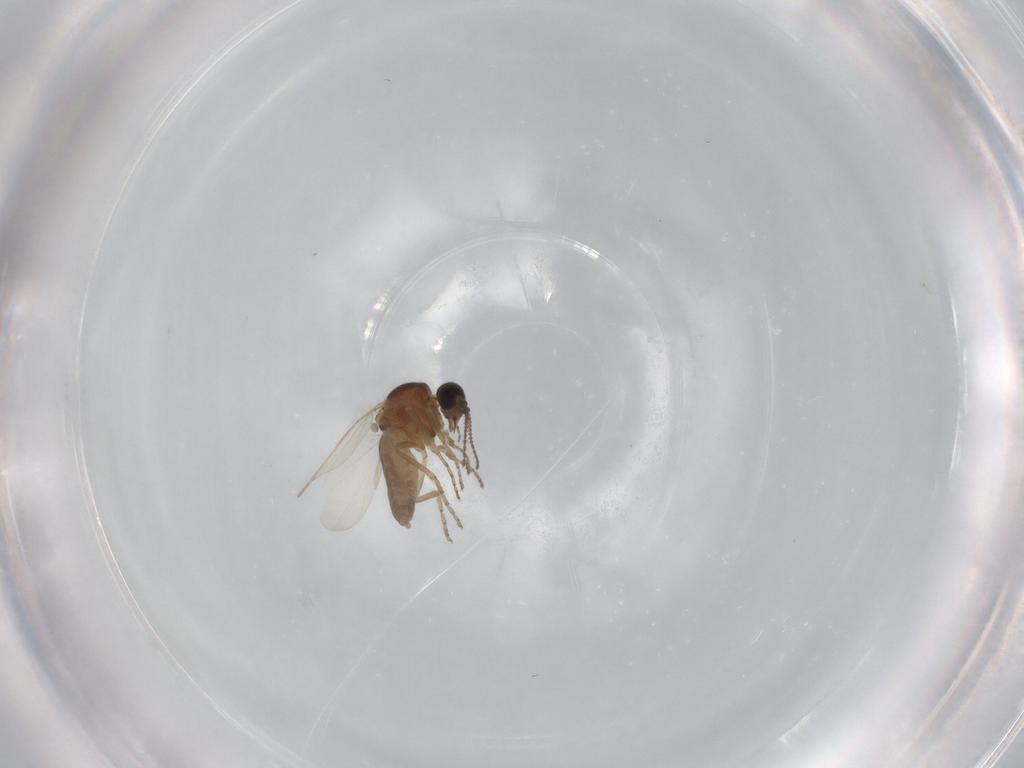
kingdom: Animalia
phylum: Arthropoda
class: Insecta
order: Diptera
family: Ceratopogonidae
